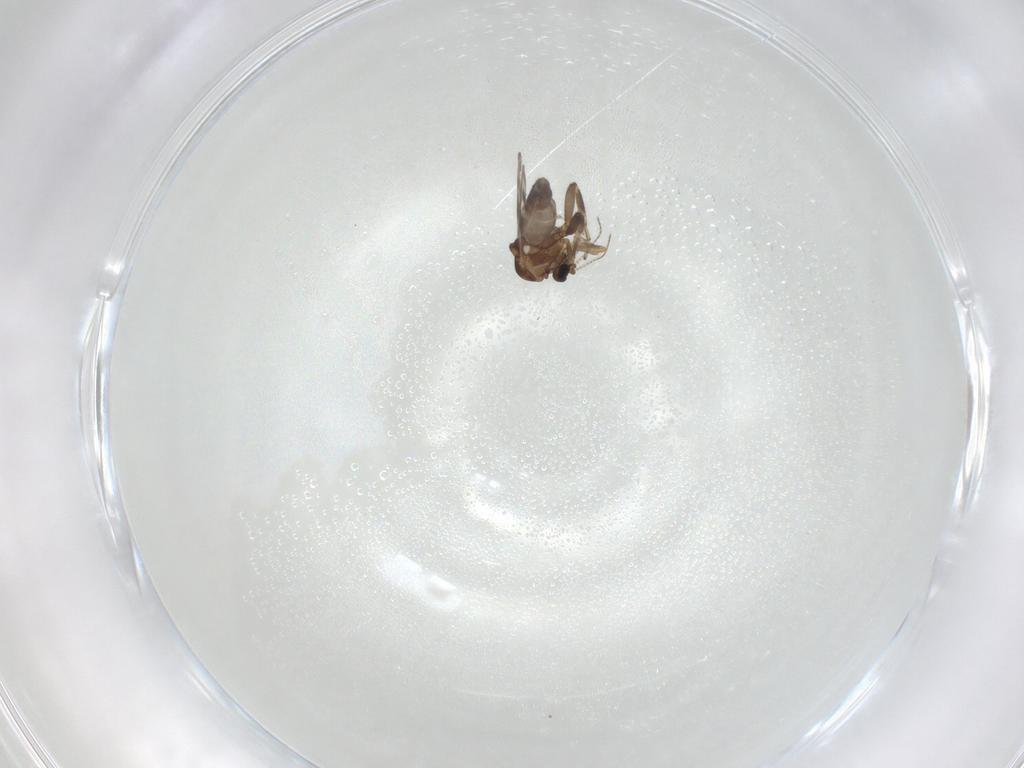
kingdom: Animalia
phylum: Arthropoda
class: Insecta
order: Diptera
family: Ceratopogonidae
